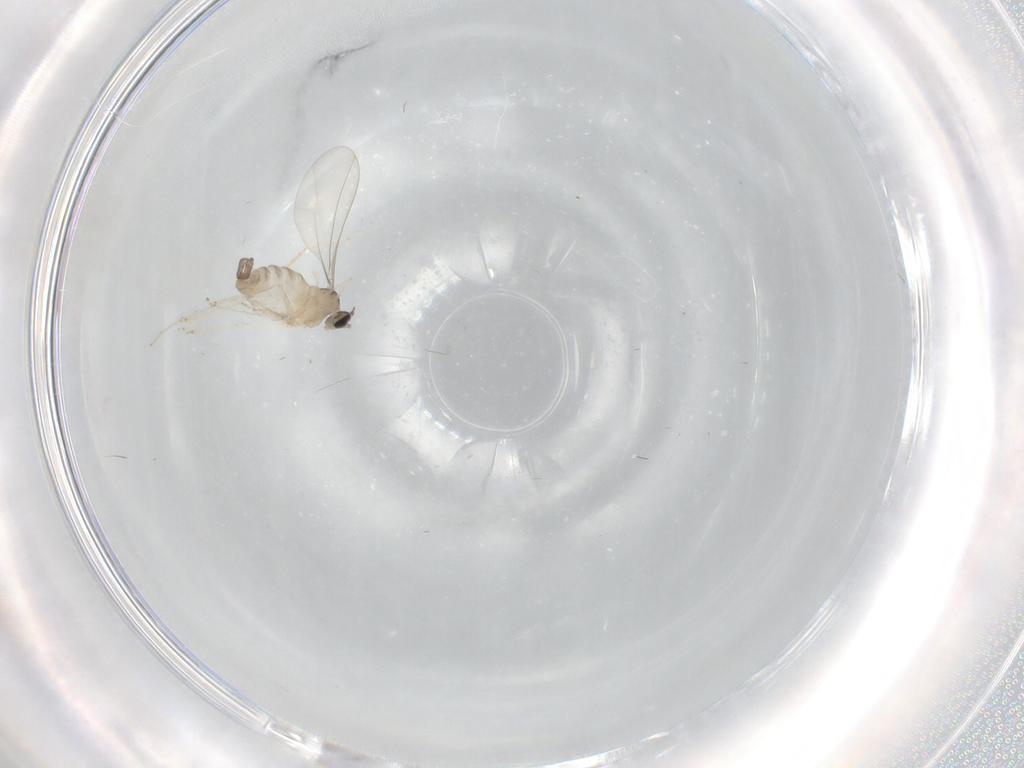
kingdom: Animalia
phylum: Arthropoda
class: Insecta
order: Diptera
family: Cecidomyiidae
